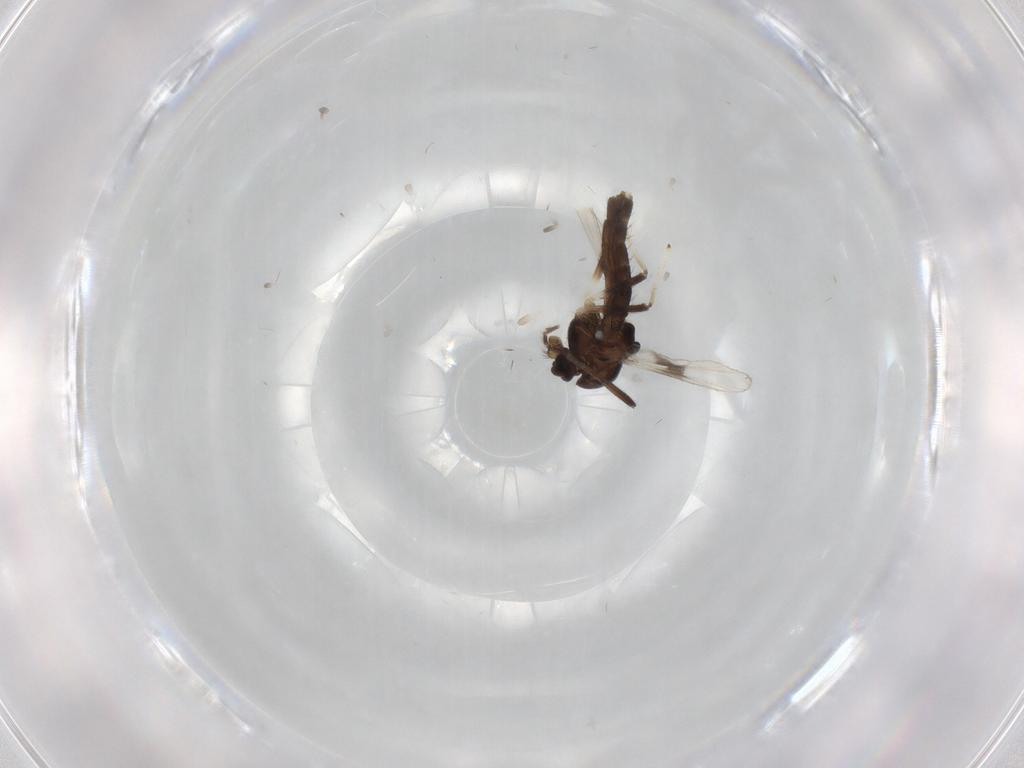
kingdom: Animalia
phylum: Arthropoda
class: Insecta
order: Diptera
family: Chironomidae
